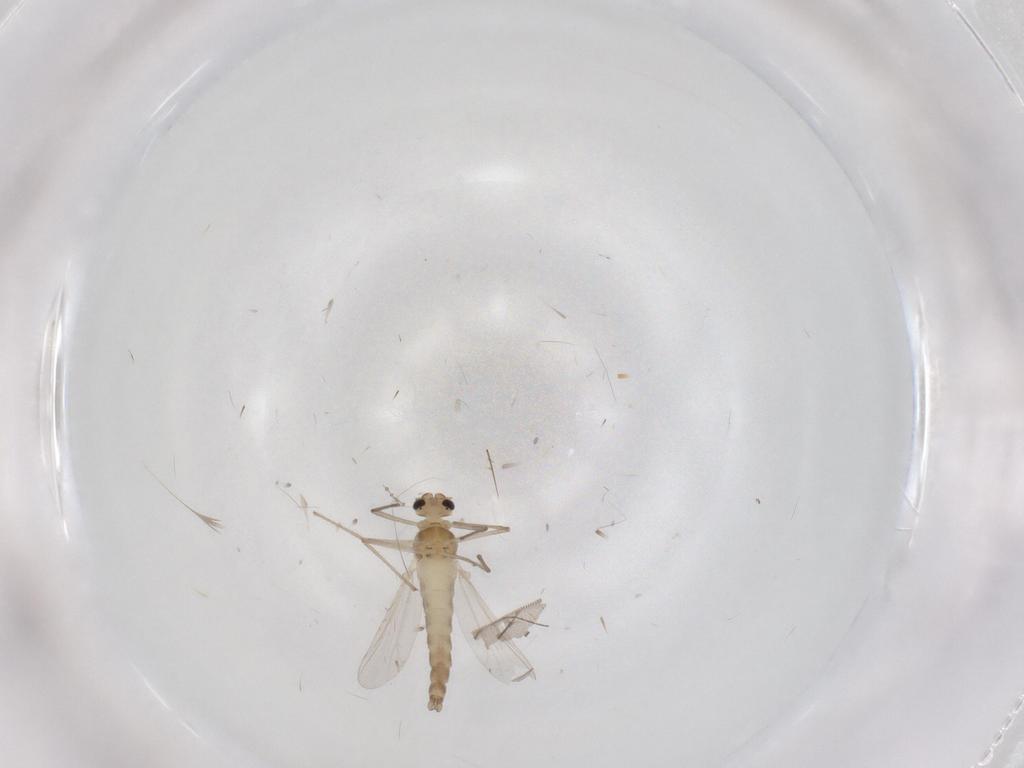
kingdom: Animalia
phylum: Arthropoda
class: Insecta
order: Diptera
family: Chironomidae
